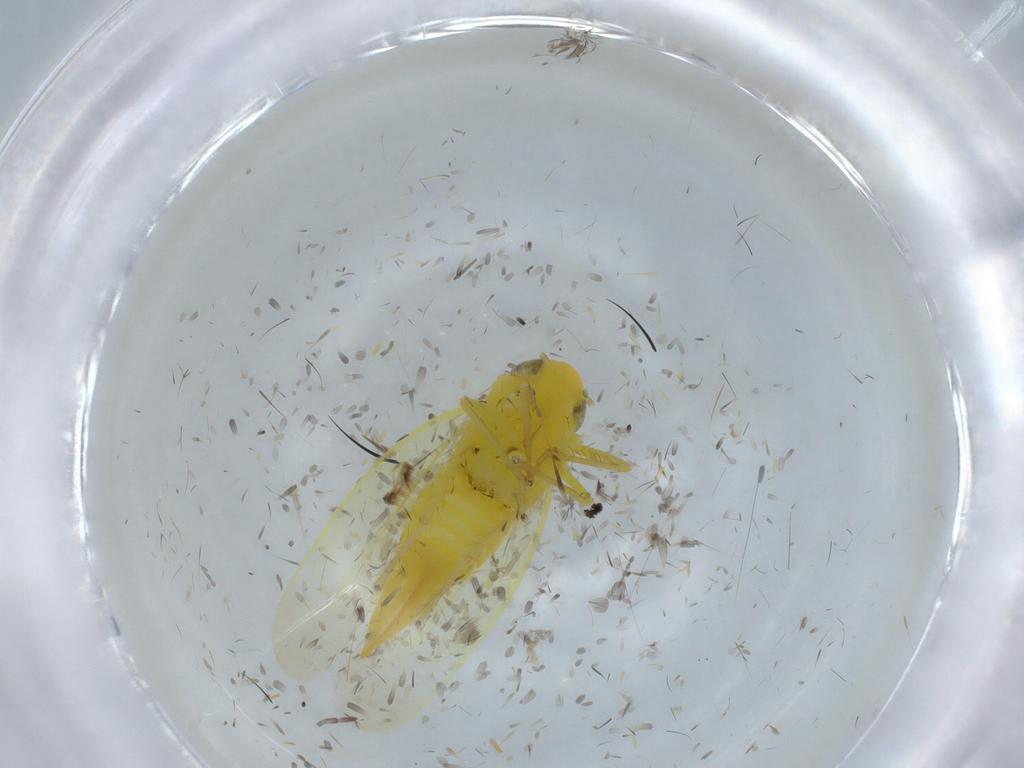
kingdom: Animalia
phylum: Arthropoda
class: Insecta
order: Hemiptera
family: Cicadellidae
